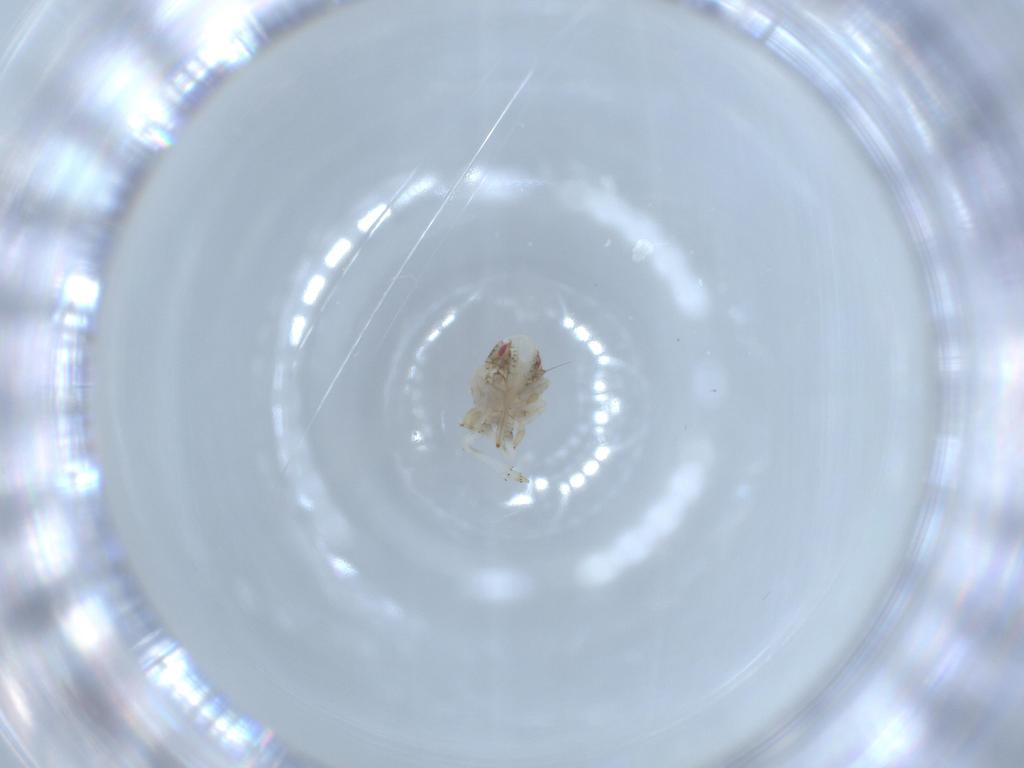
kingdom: Animalia
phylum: Arthropoda
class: Insecta
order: Hemiptera
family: Acanaloniidae
